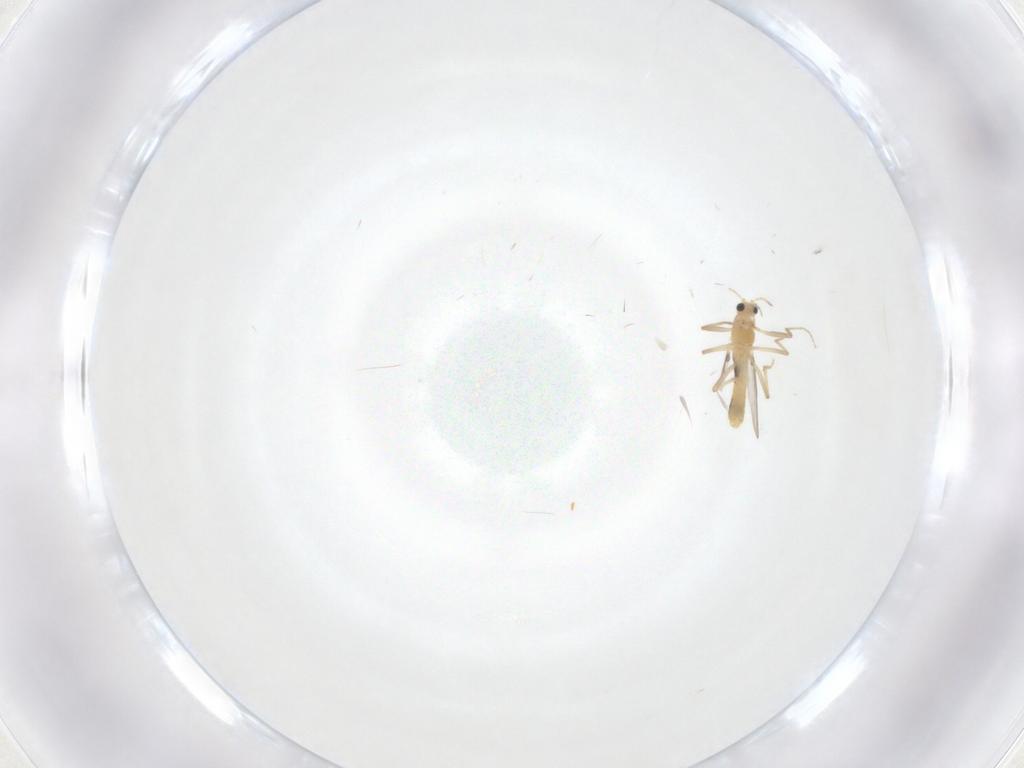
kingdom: Animalia
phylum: Arthropoda
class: Insecta
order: Diptera
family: Chironomidae
